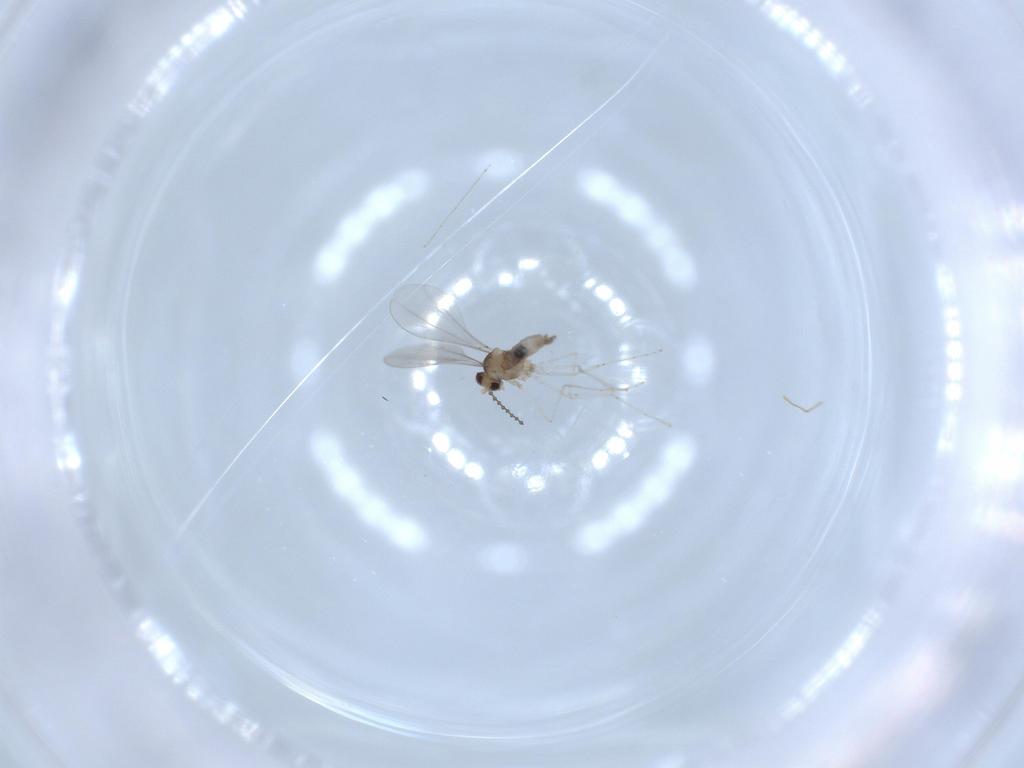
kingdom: Animalia
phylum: Arthropoda
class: Insecta
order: Diptera
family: Cecidomyiidae
